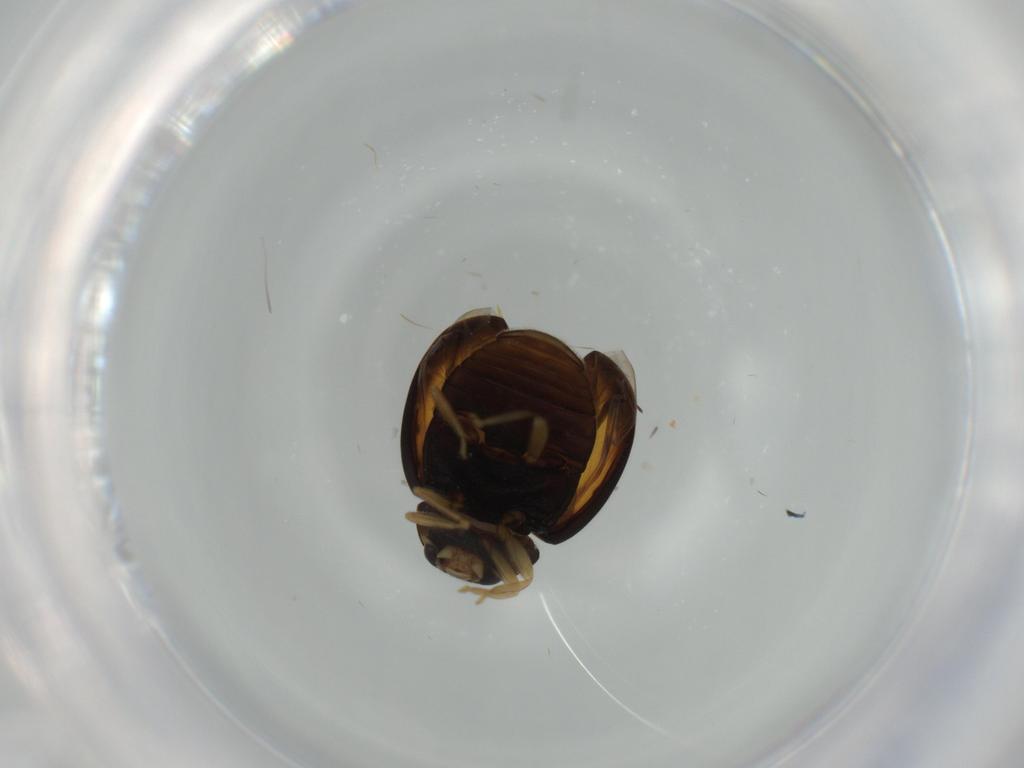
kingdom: Animalia
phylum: Arthropoda
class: Insecta
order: Coleoptera
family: Coccinellidae
